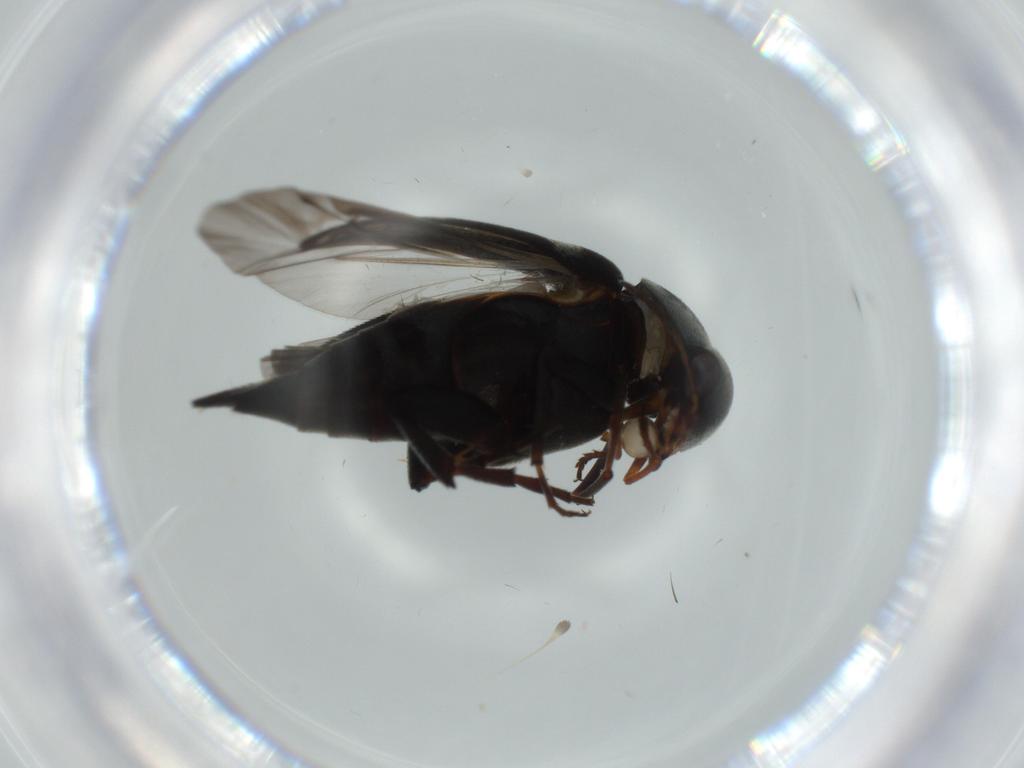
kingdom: Animalia
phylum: Arthropoda
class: Insecta
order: Coleoptera
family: Mordellidae
